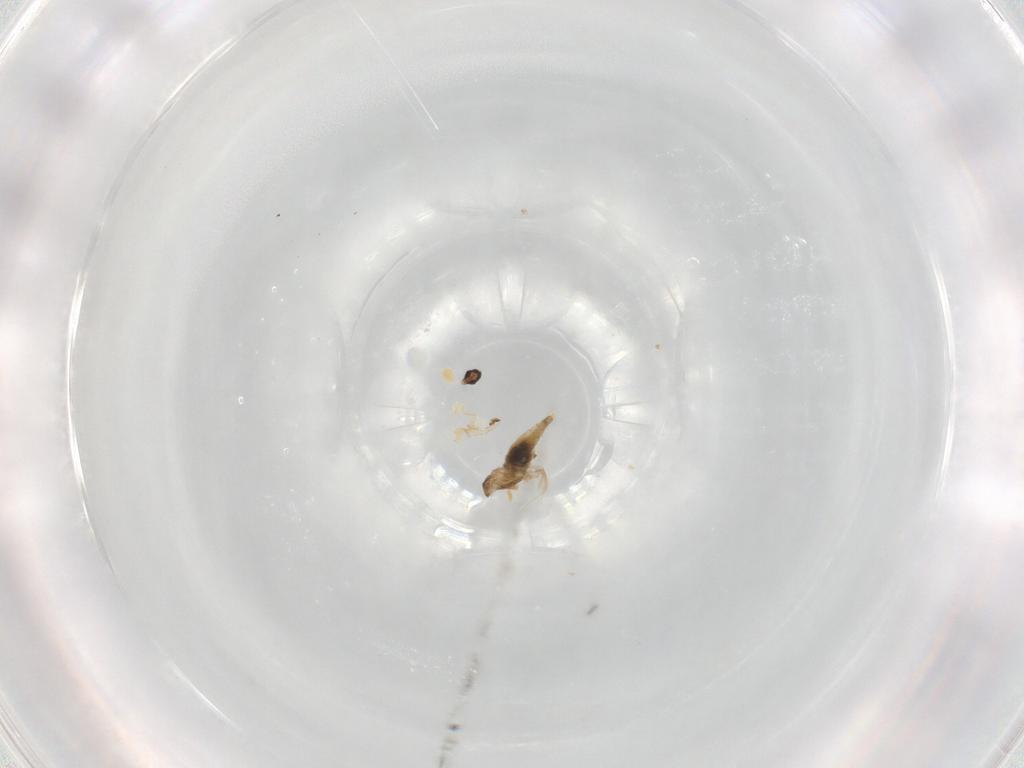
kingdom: Animalia
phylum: Arthropoda
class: Insecta
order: Diptera
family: Cecidomyiidae
